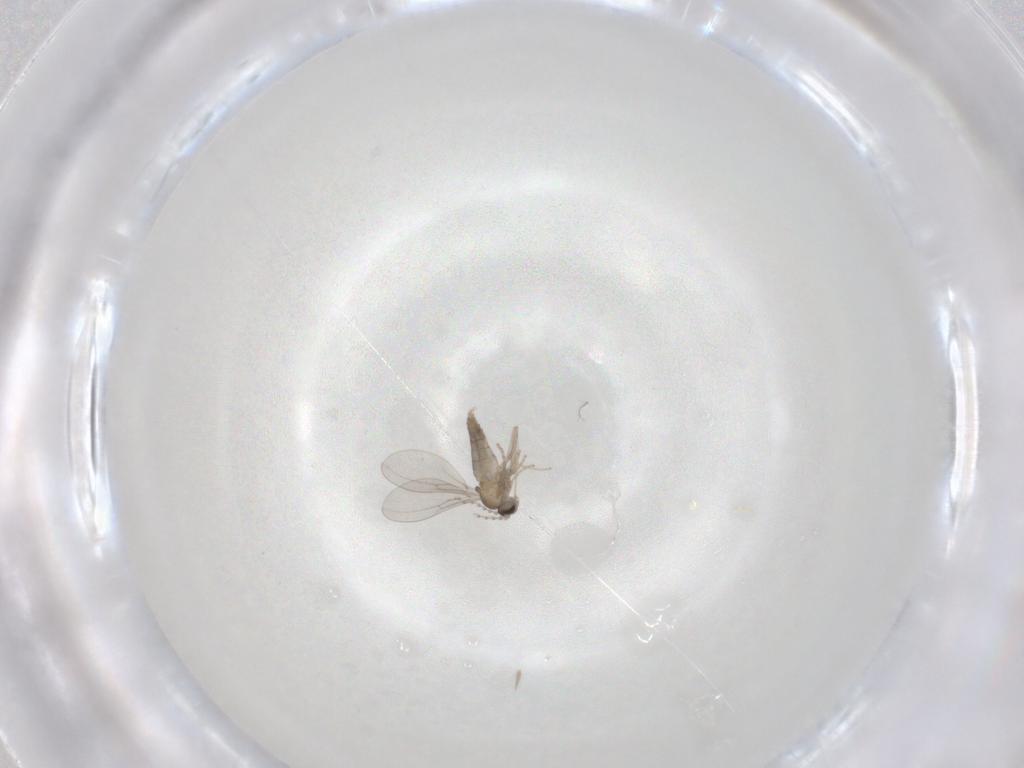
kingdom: Animalia
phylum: Arthropoda
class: Insecta
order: Diptera
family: Cecidomyiidae
